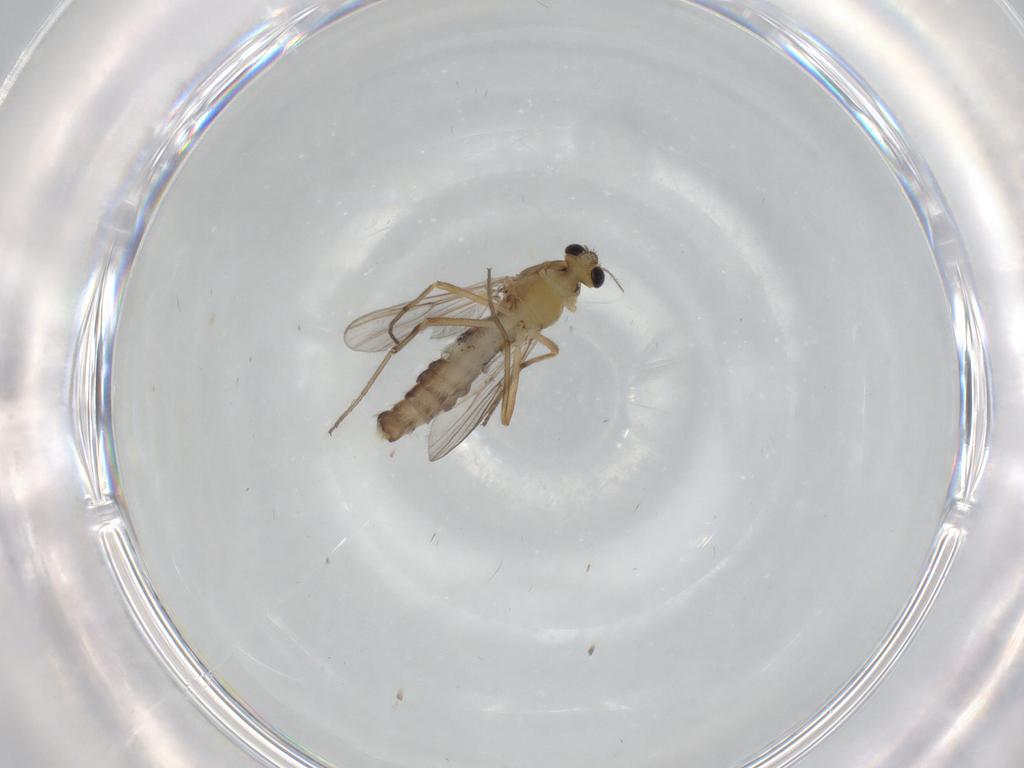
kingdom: Animalia
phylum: Arthropoda
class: Insecta
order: Diptera
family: Chironomidae
